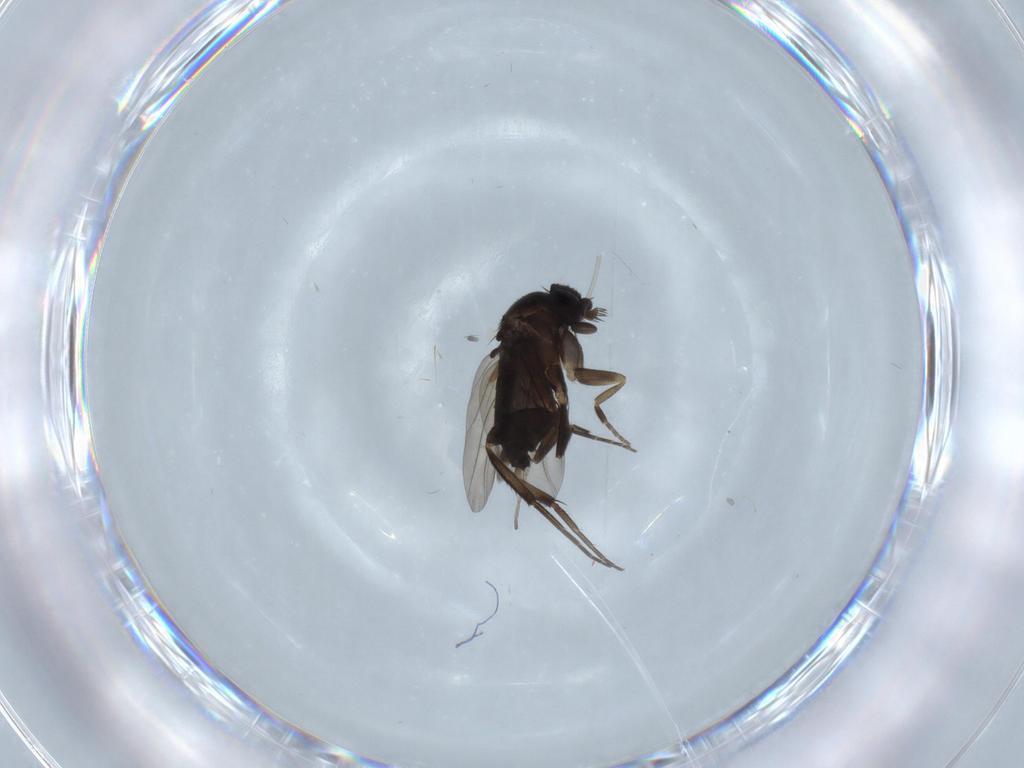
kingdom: Animalia
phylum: Arthropoda
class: Insecta
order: Diptera
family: Phoridae
